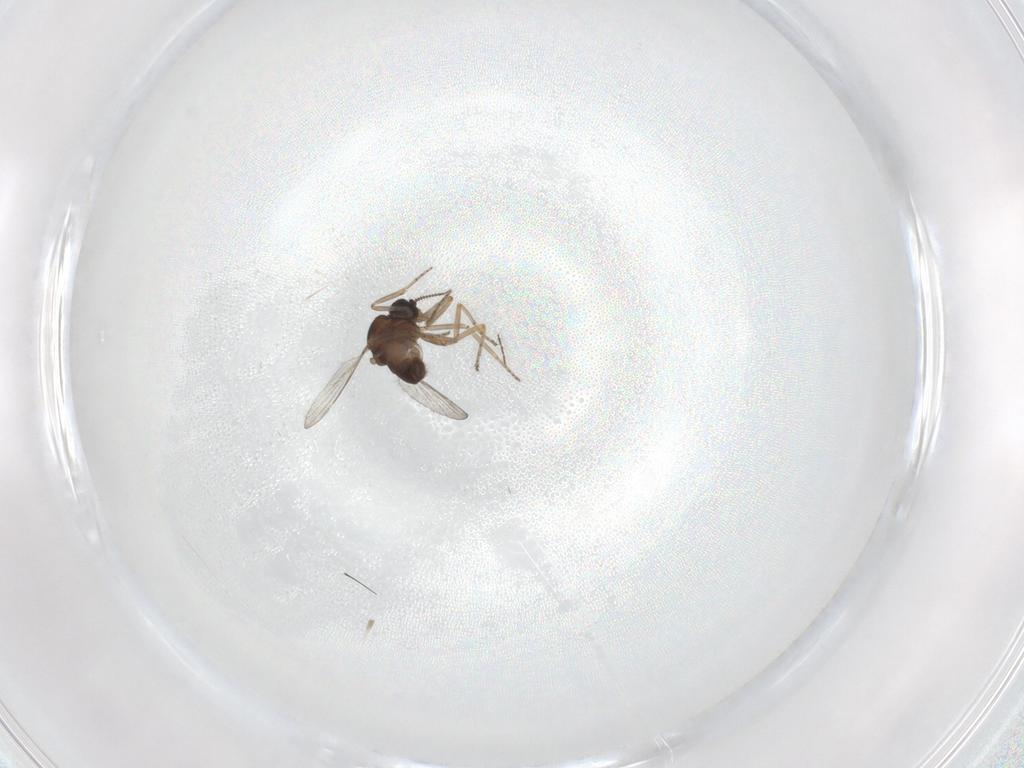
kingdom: Animalia
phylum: Arthropoda
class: Insecta
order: Diptera
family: Ceratopogonidae
